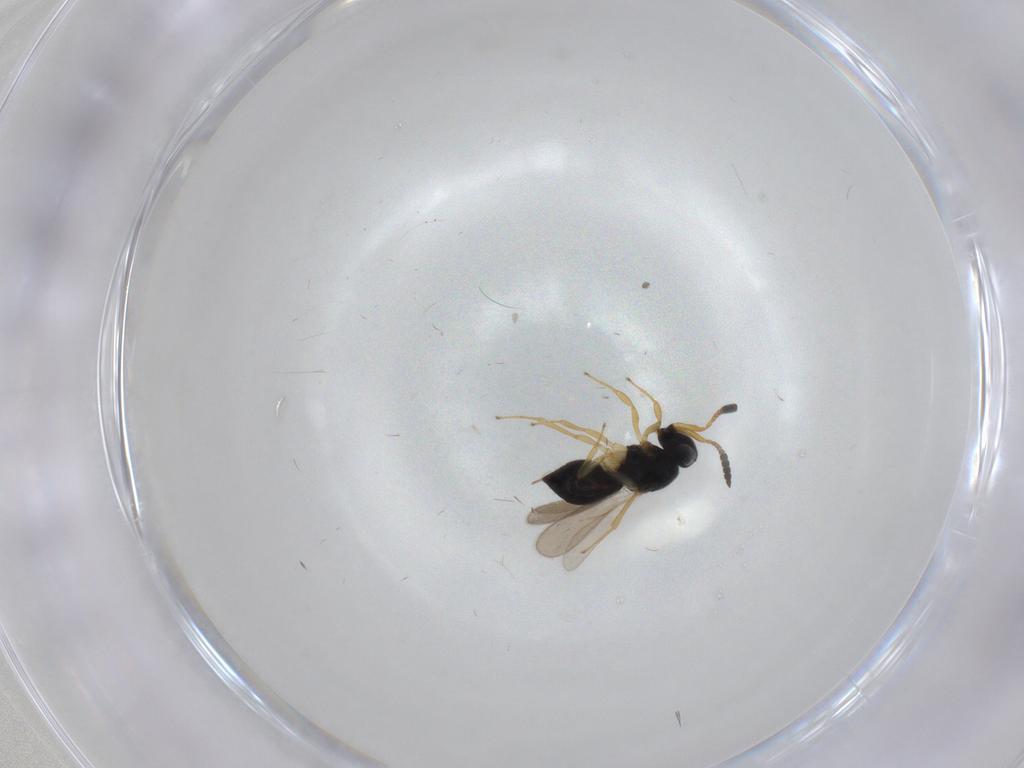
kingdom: Animalia
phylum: Arthropoda
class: Insecta
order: Hymenoptera
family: Scelionidae
